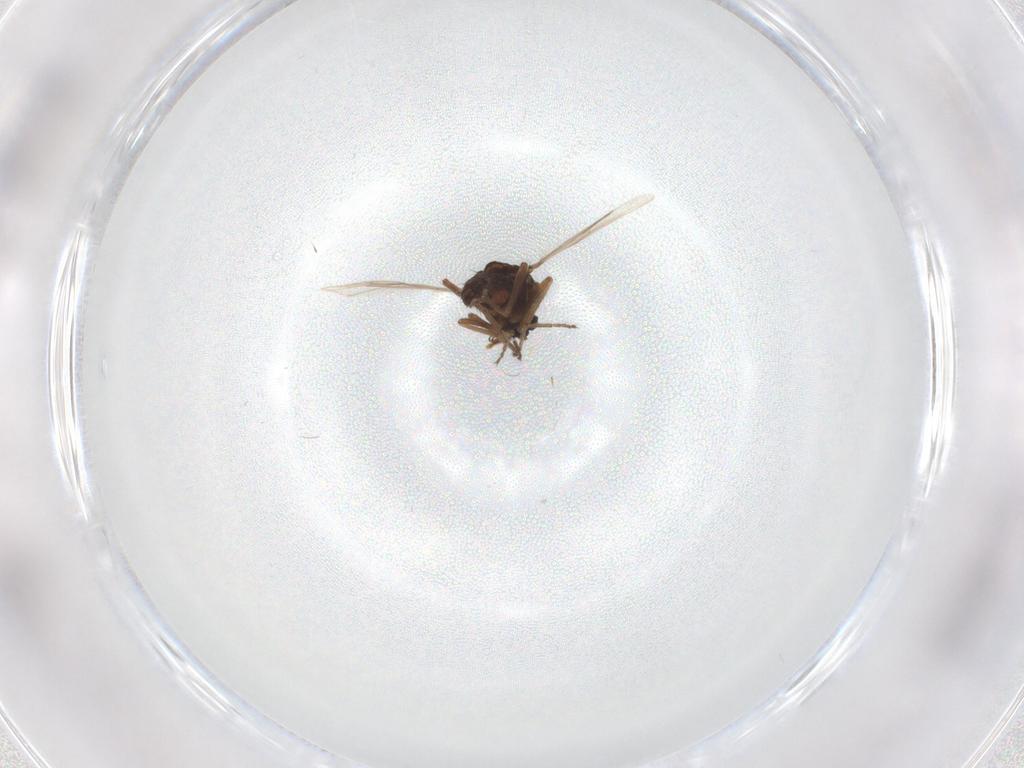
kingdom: Animalia
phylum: Arthropoda
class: Insecta
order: Diptera
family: Ceratopogonidae
